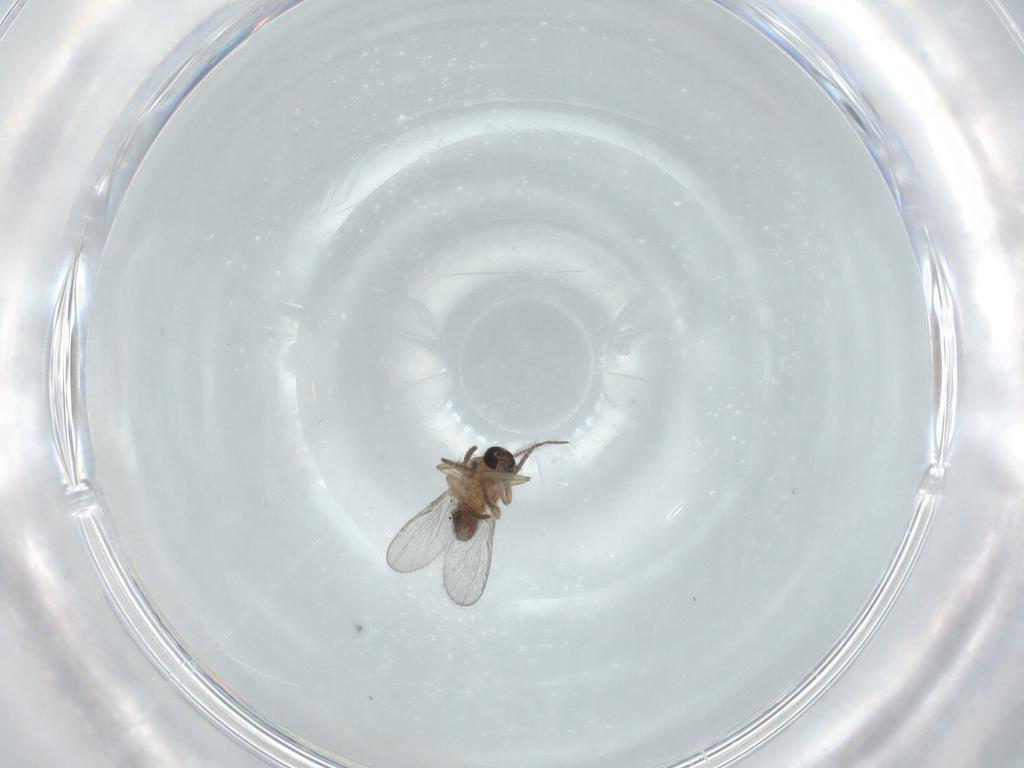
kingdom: Animalia
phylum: Arthropoda
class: Insecta
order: Diptera
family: Ceratopogonidae
